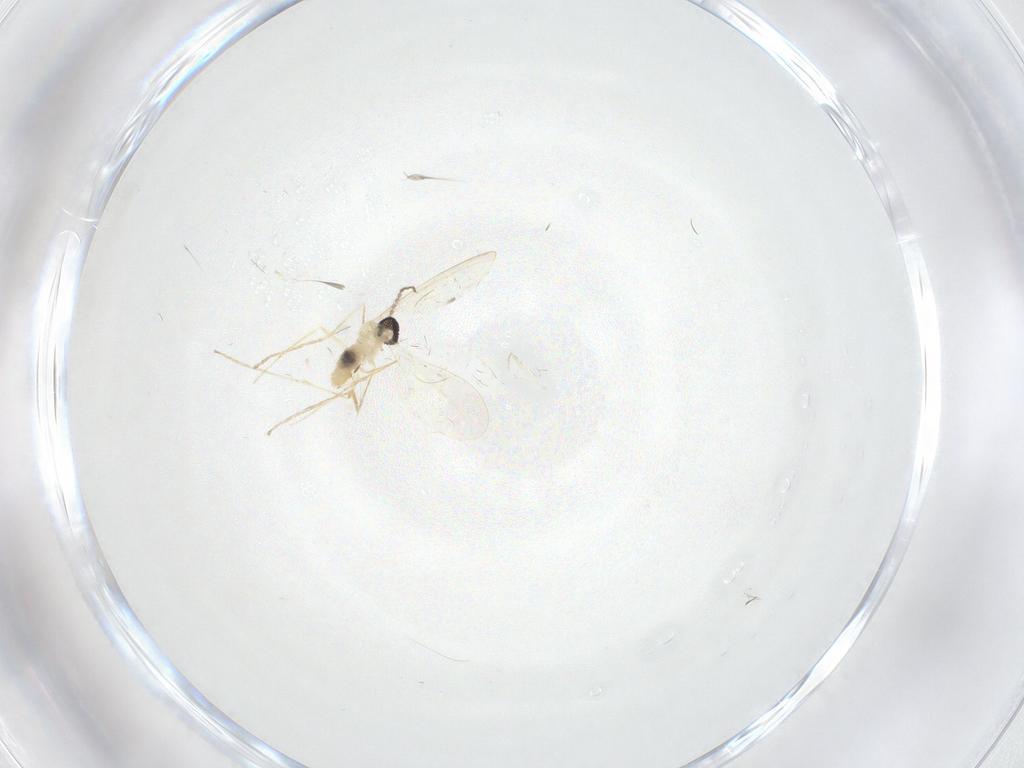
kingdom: Animalia
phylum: Arthropoda
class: Insecta
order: Diptera
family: Cecidomyiidae
